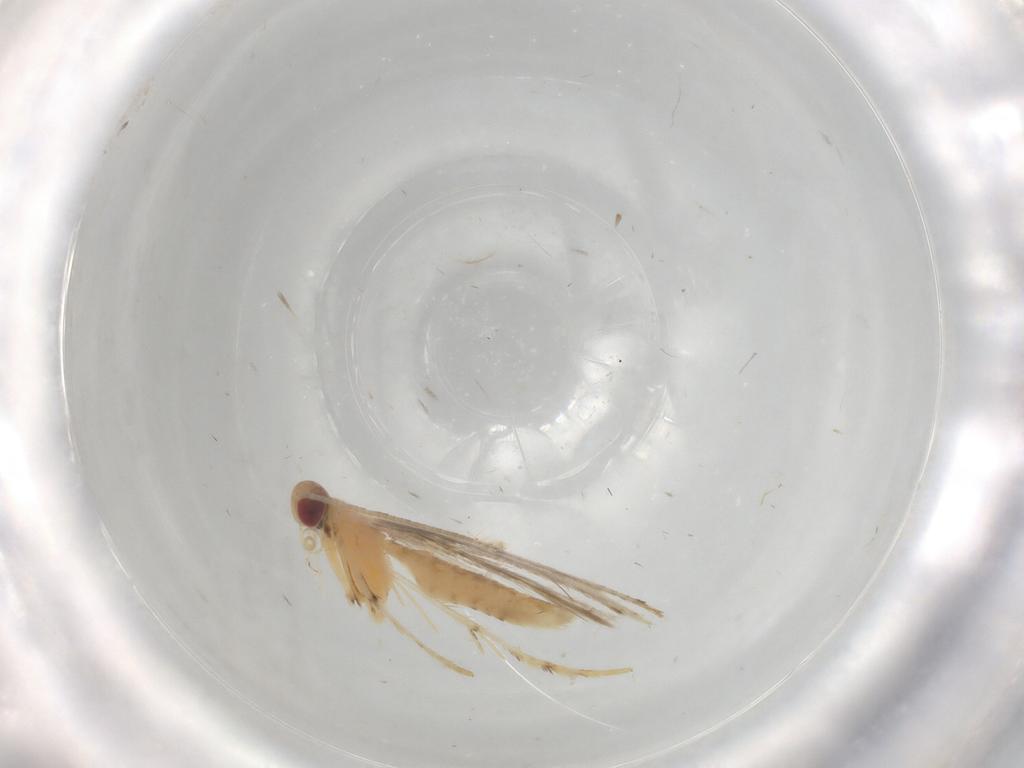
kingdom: Animalia
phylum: Arthropoda
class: Insecta
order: Lepidoptera
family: Gracillariidae
